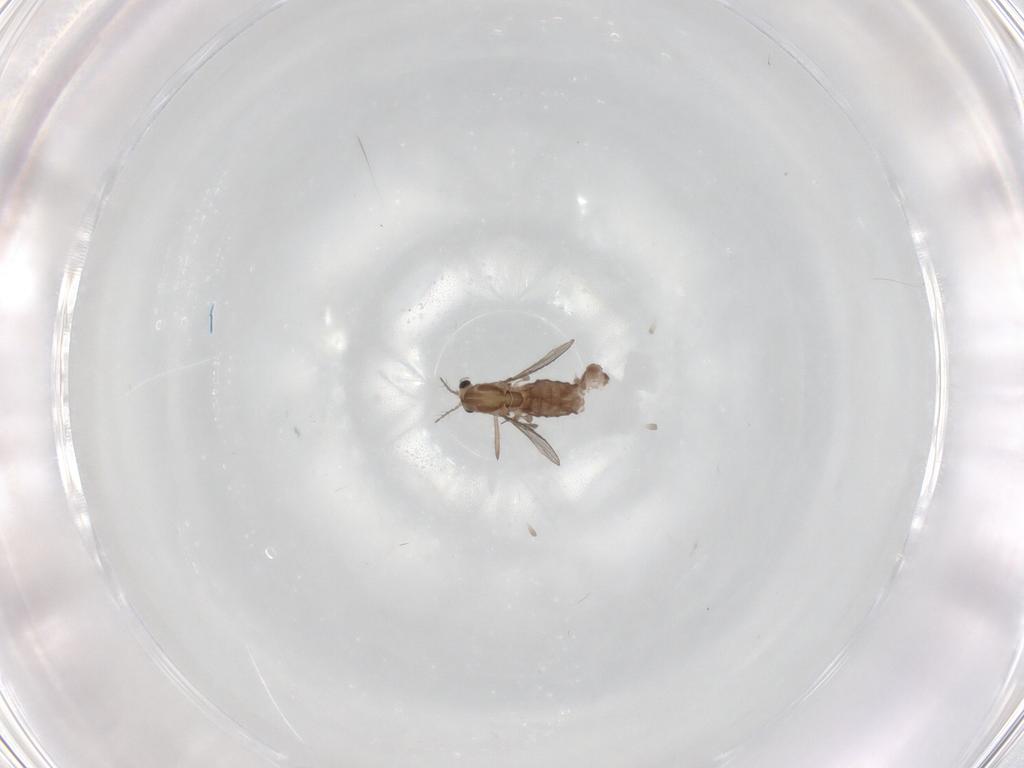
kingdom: Animalia
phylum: Arthropoda
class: Insecta
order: Diptera
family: Chironomidae
